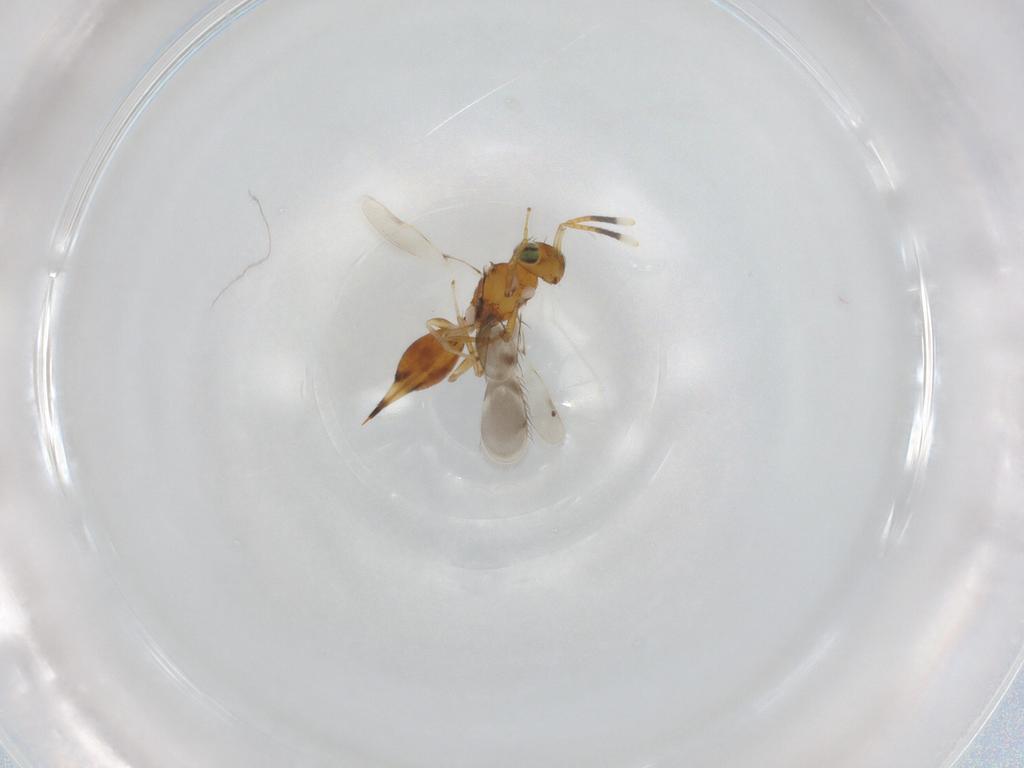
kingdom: Animalia
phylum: Arthropoda
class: Insecta
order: Hymenoptera
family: Diparidae
